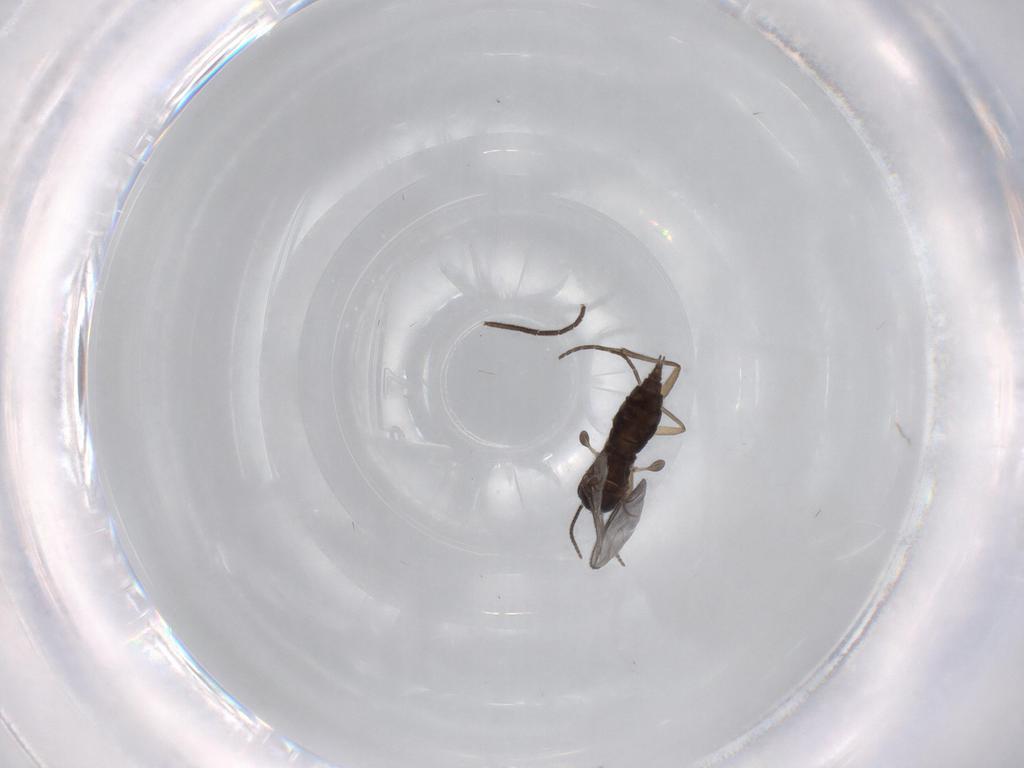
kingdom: Animalia
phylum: Arthropoda
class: Insecta
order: Diptera
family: Sciaridae
